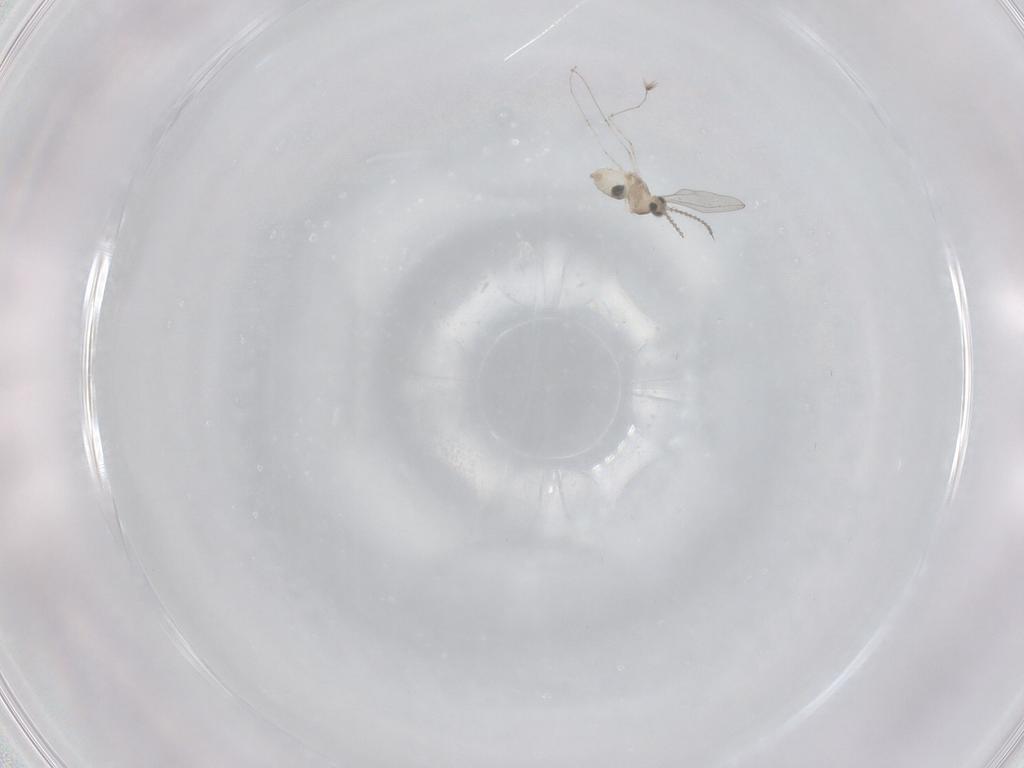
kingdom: Animalia
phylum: Arthropoda
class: Insecta
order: Diptera
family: Cecidomyiidae
